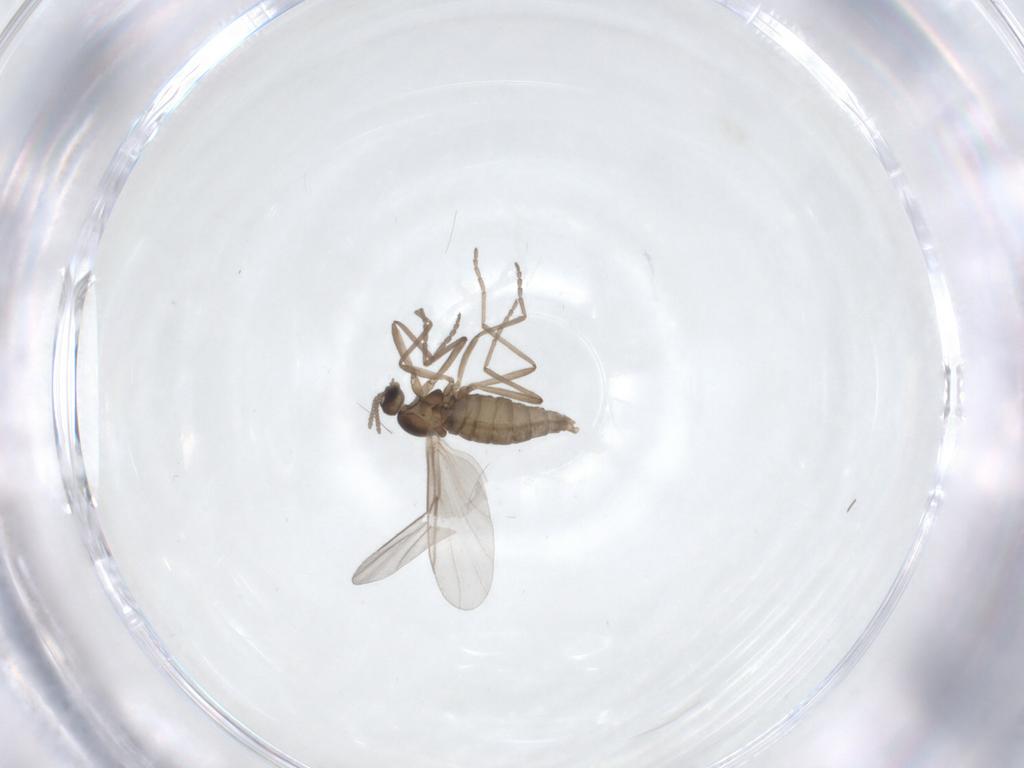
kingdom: Animalia
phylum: Arthropoda
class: Insecta
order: Diptera
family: Cecidomyiidae
